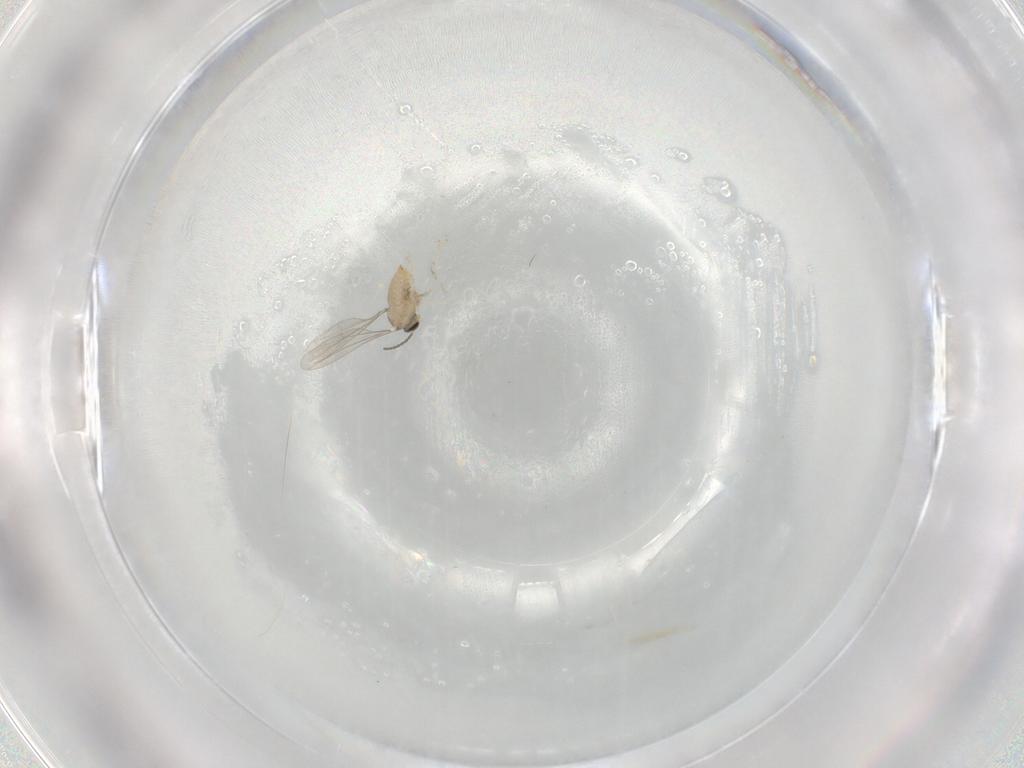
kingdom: Animalia
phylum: Arthropoda
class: Insecta
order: Diptera
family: Cecidomyiidae
